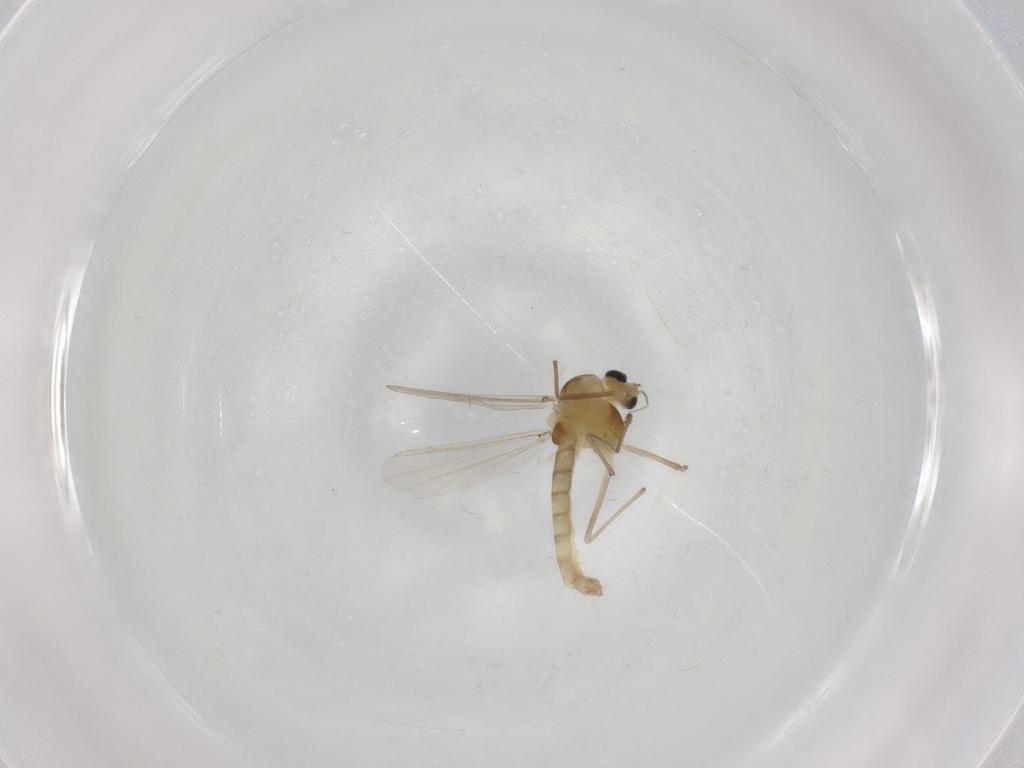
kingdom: Animalia
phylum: Arthropoda
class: Insecta
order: Diptera
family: Chironomidae
